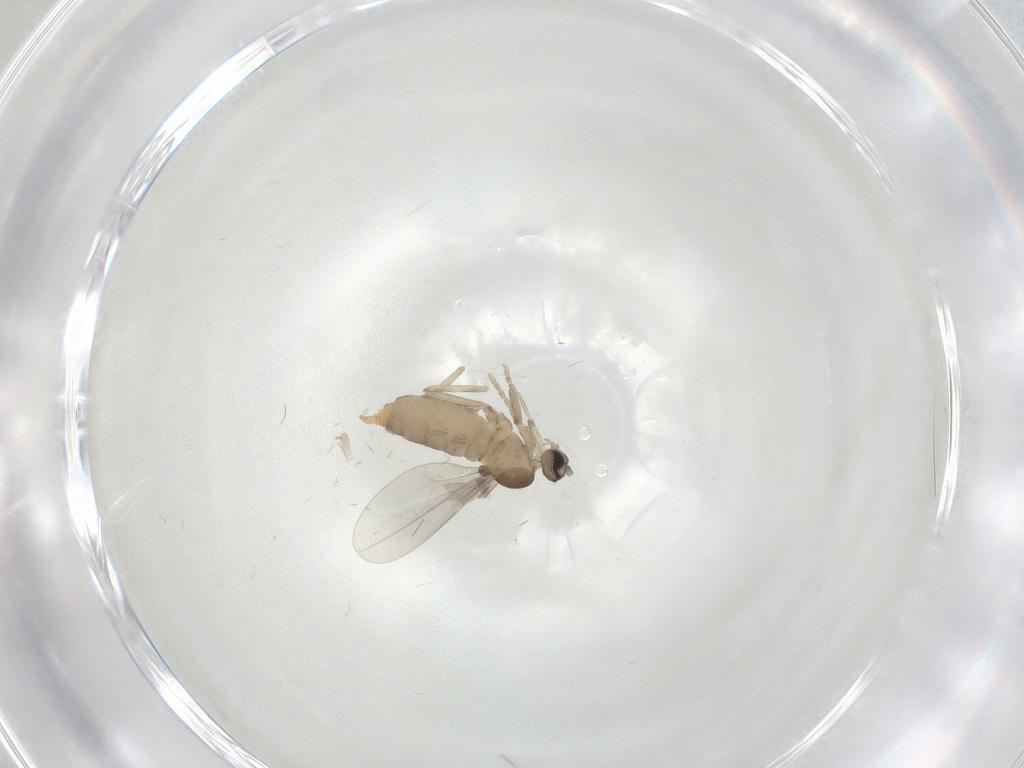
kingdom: Animalia
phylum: Arthropoda
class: Insecta
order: Diptera
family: Cecidomyiidae
